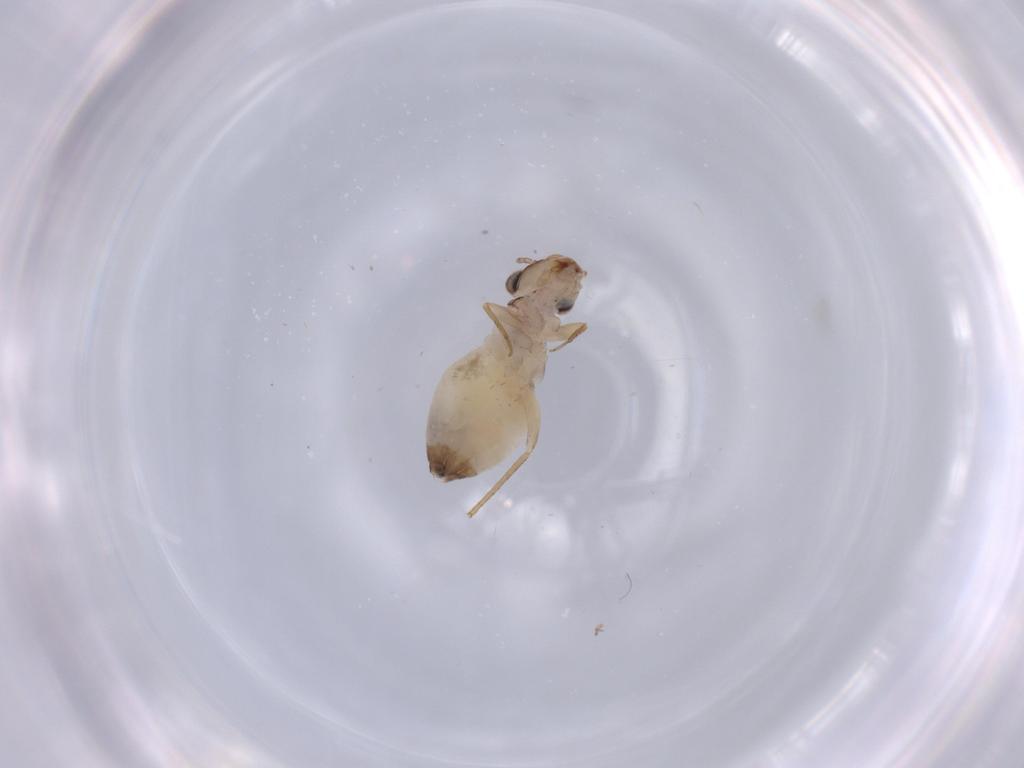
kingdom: Animalia
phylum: Arthropoda
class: Insecta
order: Psocodea
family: Lepidopsocidae
